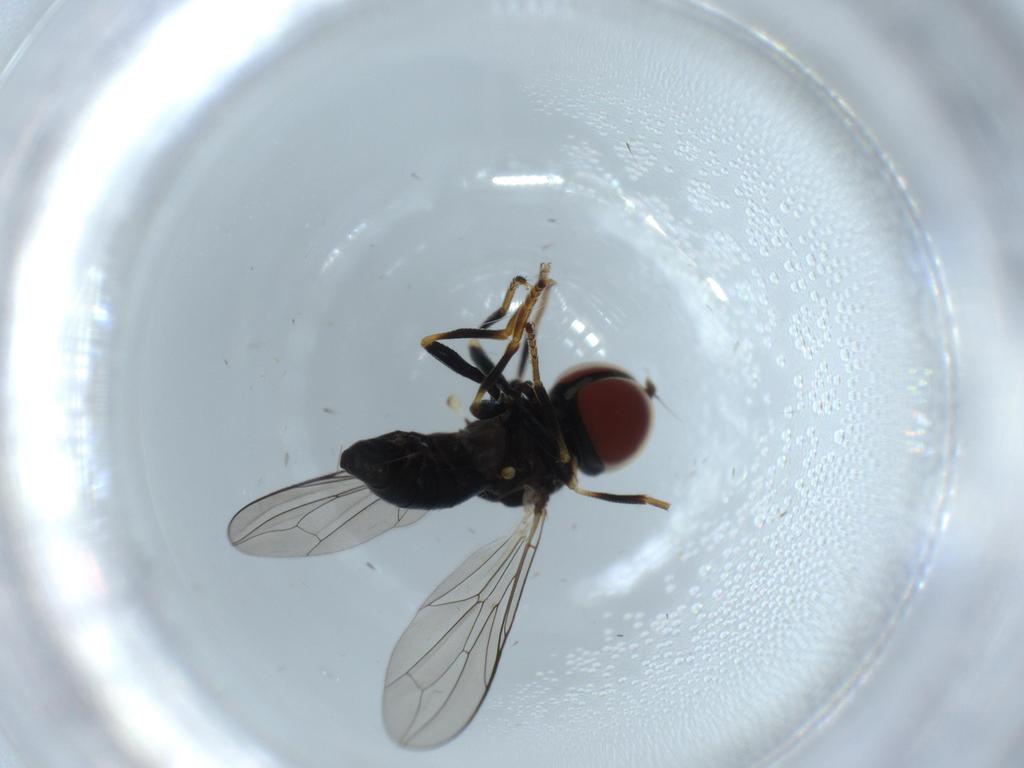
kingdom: Animalia
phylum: Arthropoda
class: Insecta
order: Diptera
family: Pipunculidae
